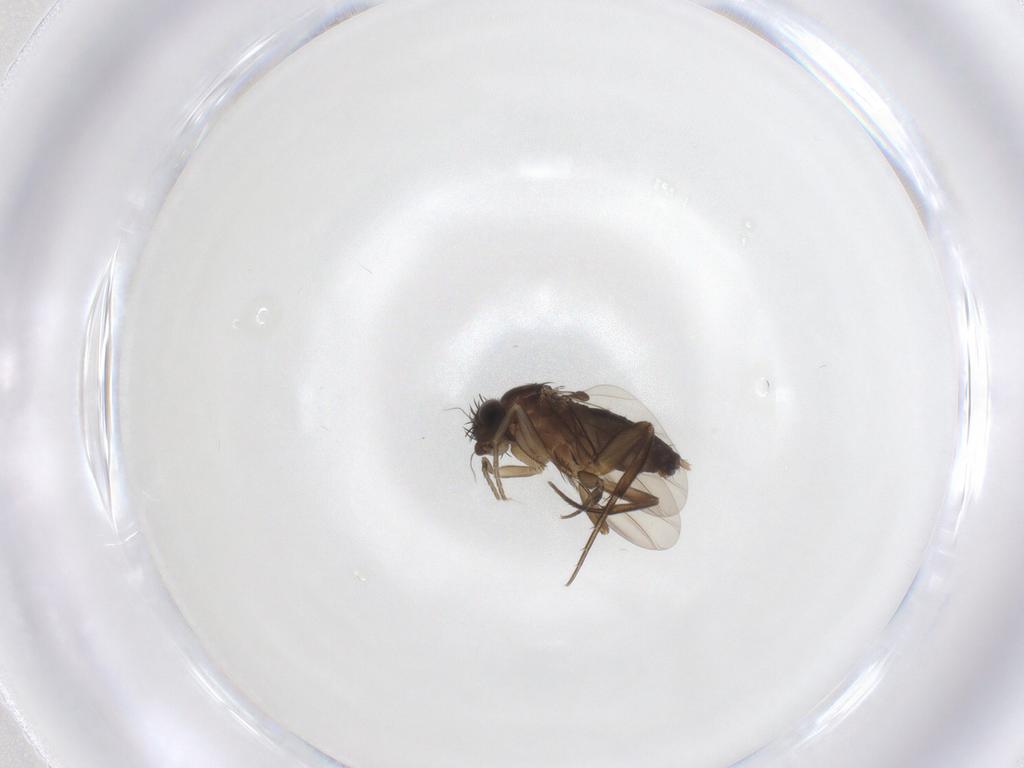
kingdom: Animalia
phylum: Arthropoda
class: Insecta
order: Diptera
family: Phoridae
